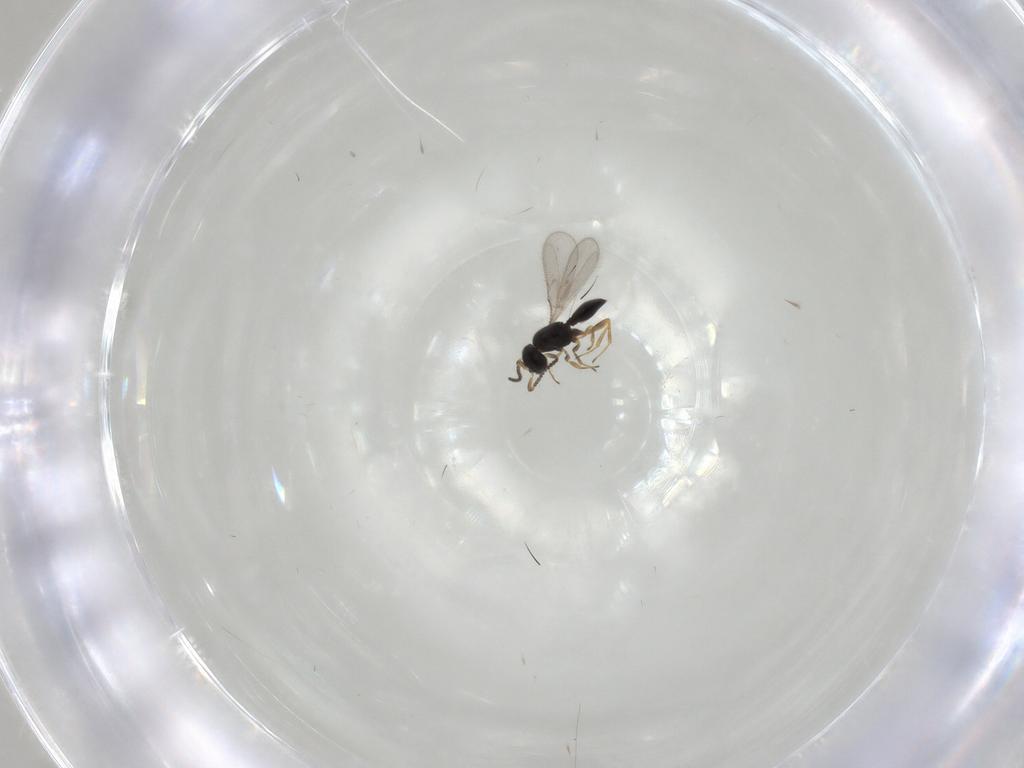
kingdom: Animalia
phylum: Arthropoda
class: Insecta
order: Hymenoptera
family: Scelionidae
